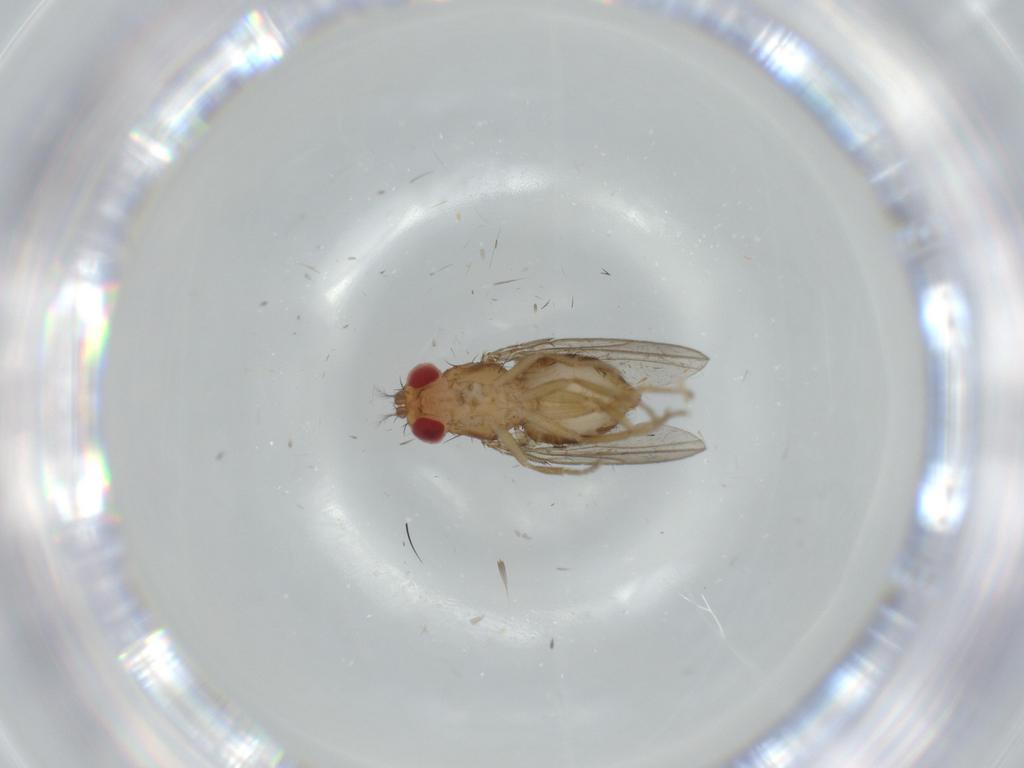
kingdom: Animalia
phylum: Arthropoda
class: Insecta
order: Diptera
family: Drosophilidae
